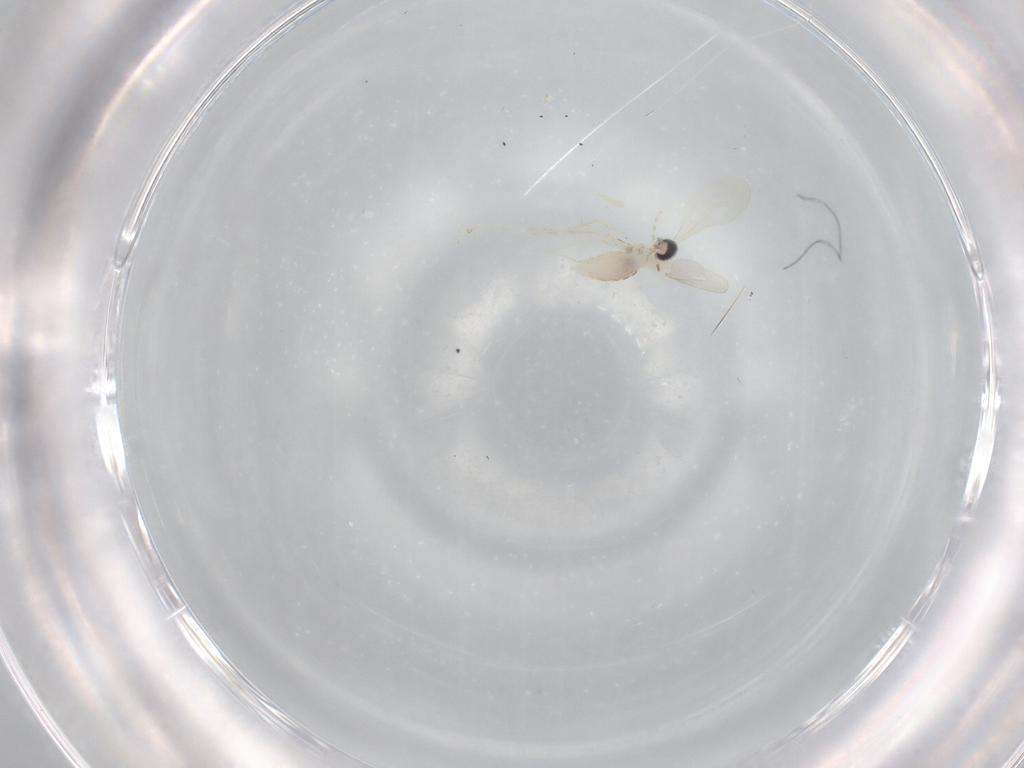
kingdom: Animalia
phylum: Arthropoda
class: Insecta
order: Diptera
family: Cecidomyiidae
